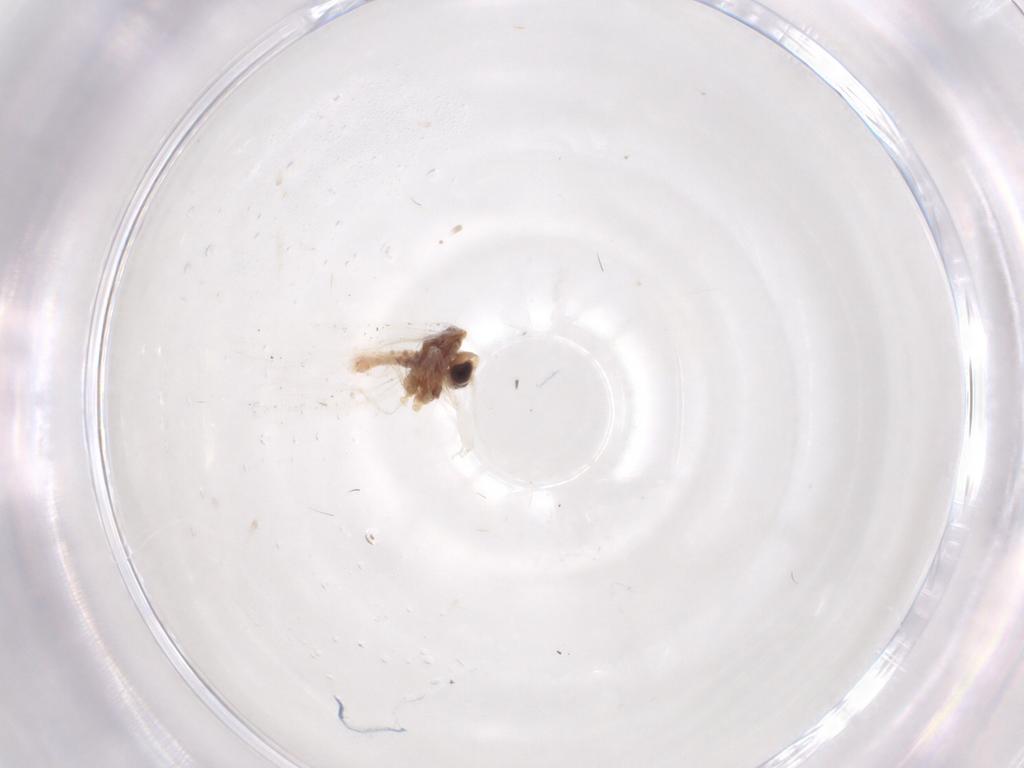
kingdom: Animalia
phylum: Arthropoda
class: Insecta
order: Neuroptera
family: Coniopterygidae
